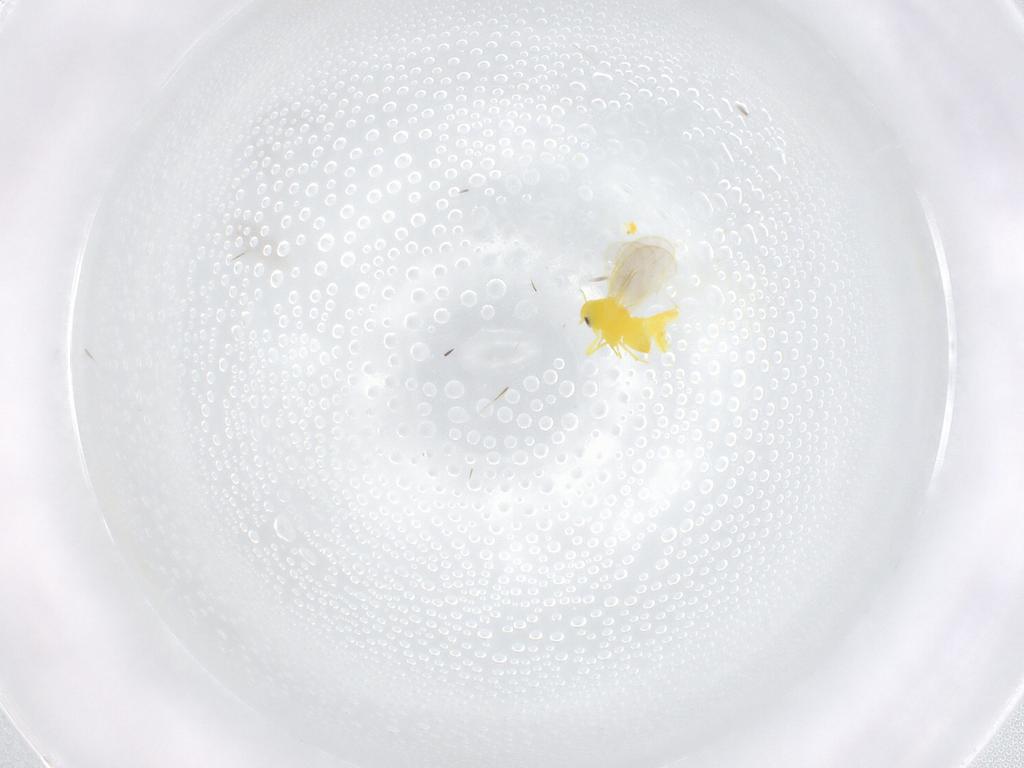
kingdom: Animalia
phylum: Arthropoda
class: Insecta
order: Hemiptera
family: Aleyrodidae
